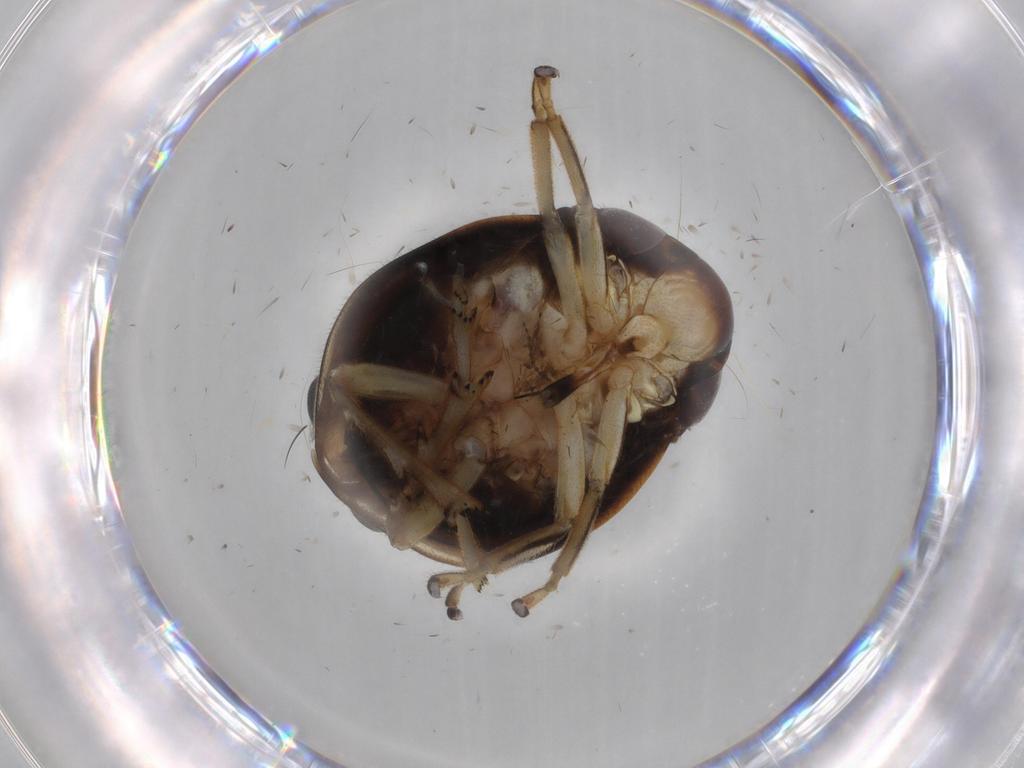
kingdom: Animalia
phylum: Arthropoda
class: Insecta
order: Hemiptera
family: Clastopteridae
